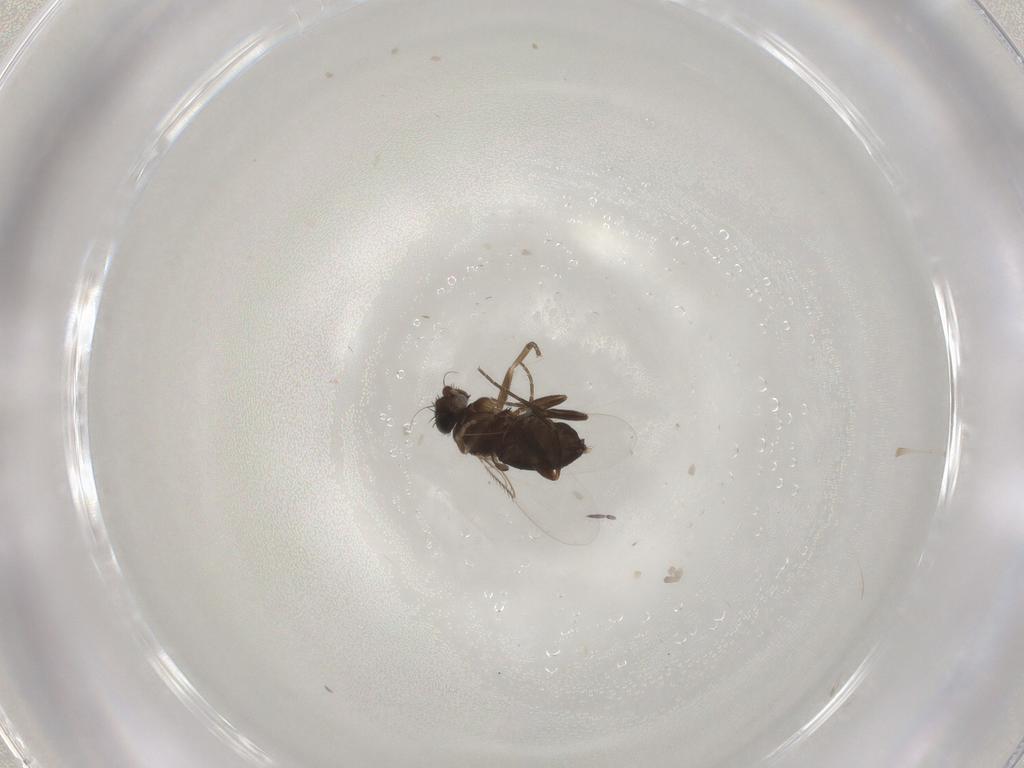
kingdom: Animalia
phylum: Arthropoda
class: Insecta
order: Diptera
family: Phoridae
